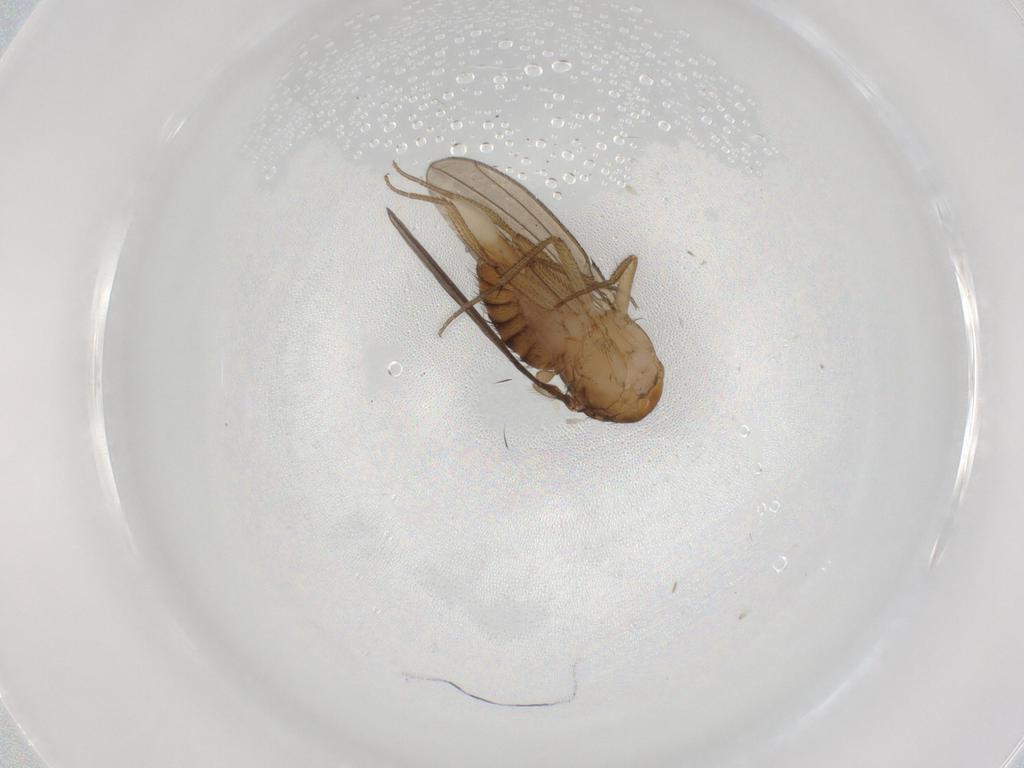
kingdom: Animalia
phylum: Arthropoda
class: Insecta
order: Diptera
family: Drosophilidae
